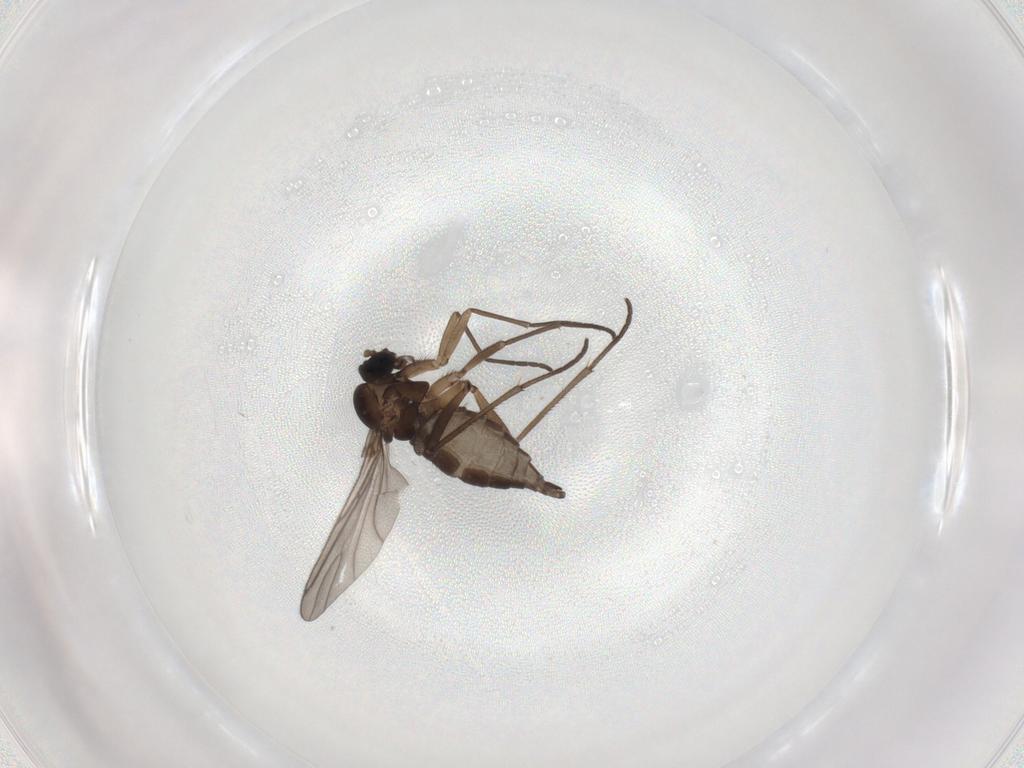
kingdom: Animalia
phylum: Arthropoda
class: Insecta
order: Diptera
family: Sciaridae
